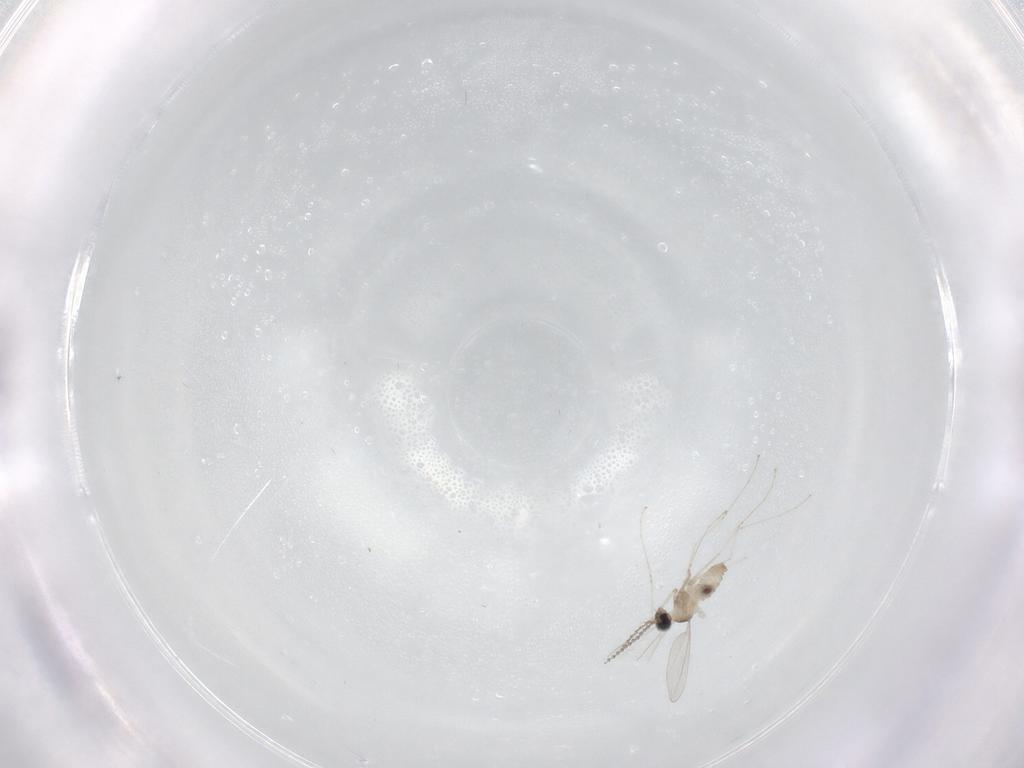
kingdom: Animalia
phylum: Arthropoda
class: Insecta
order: Diptera
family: Cecidomyiidae
